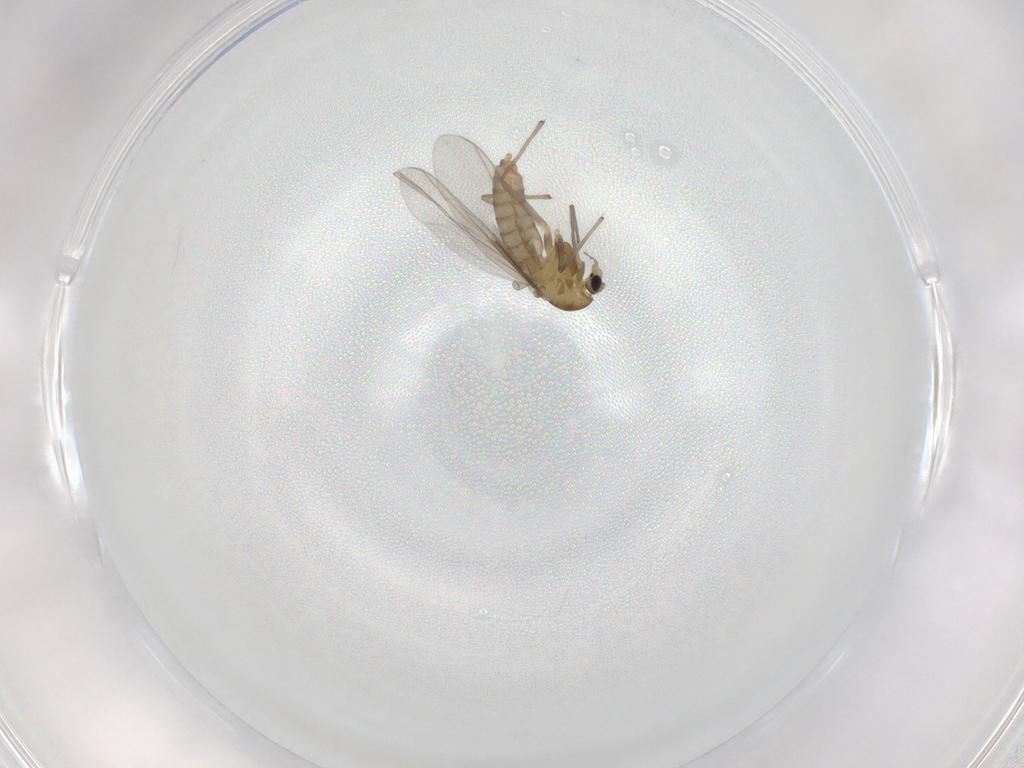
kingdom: Animalia
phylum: Arthropoda
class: Insecta
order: Diptera
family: Chironomidae
